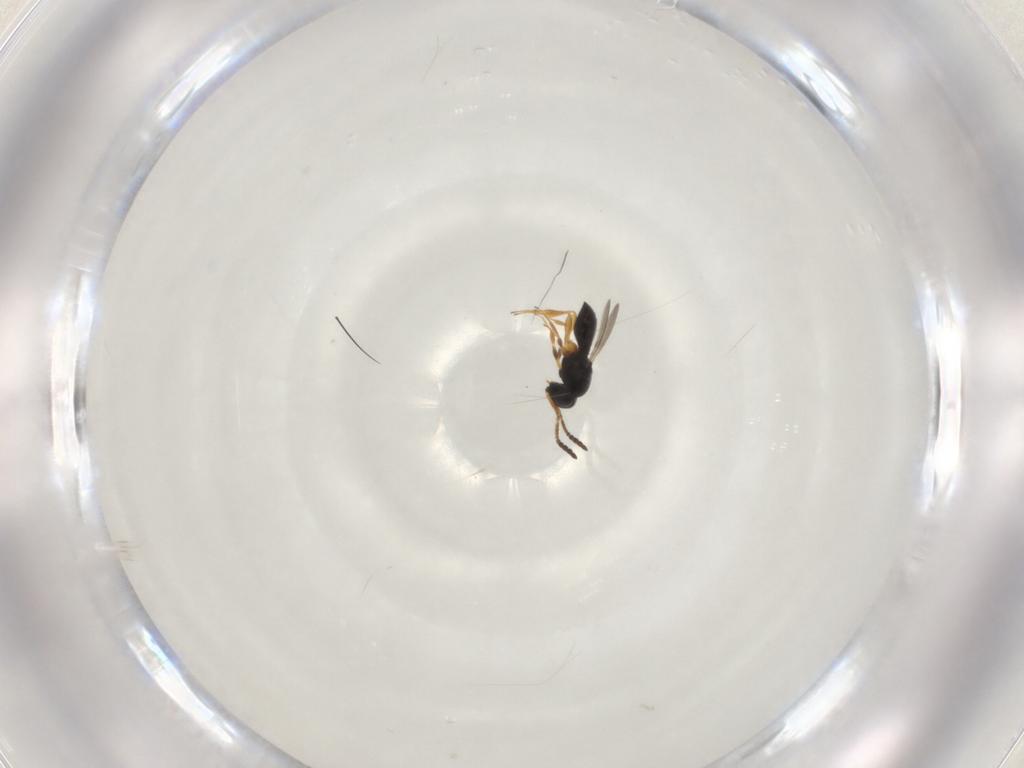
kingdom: Animalia
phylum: Arthropoda
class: Insecta
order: Hymenoptera
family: Scelionidae
